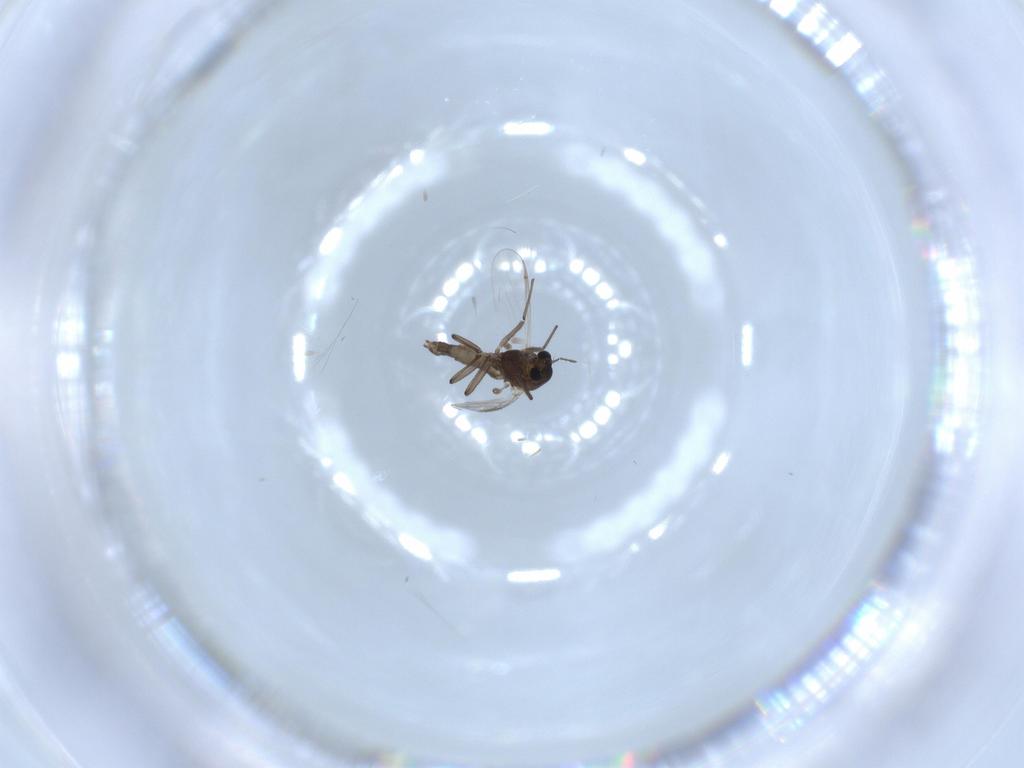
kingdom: Animalia
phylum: Arthropoda
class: Insecta
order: Diptera
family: Chironomidae
